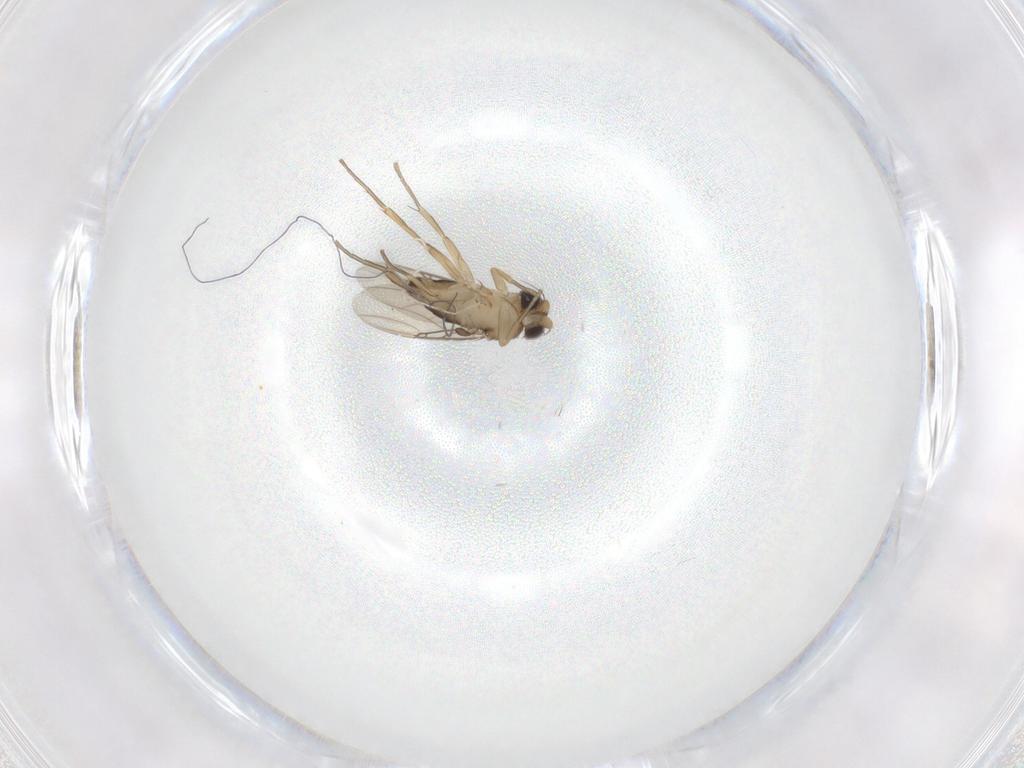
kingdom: Animalia
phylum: Arthropoda
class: Insecta
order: Diptera
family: Phoridae
